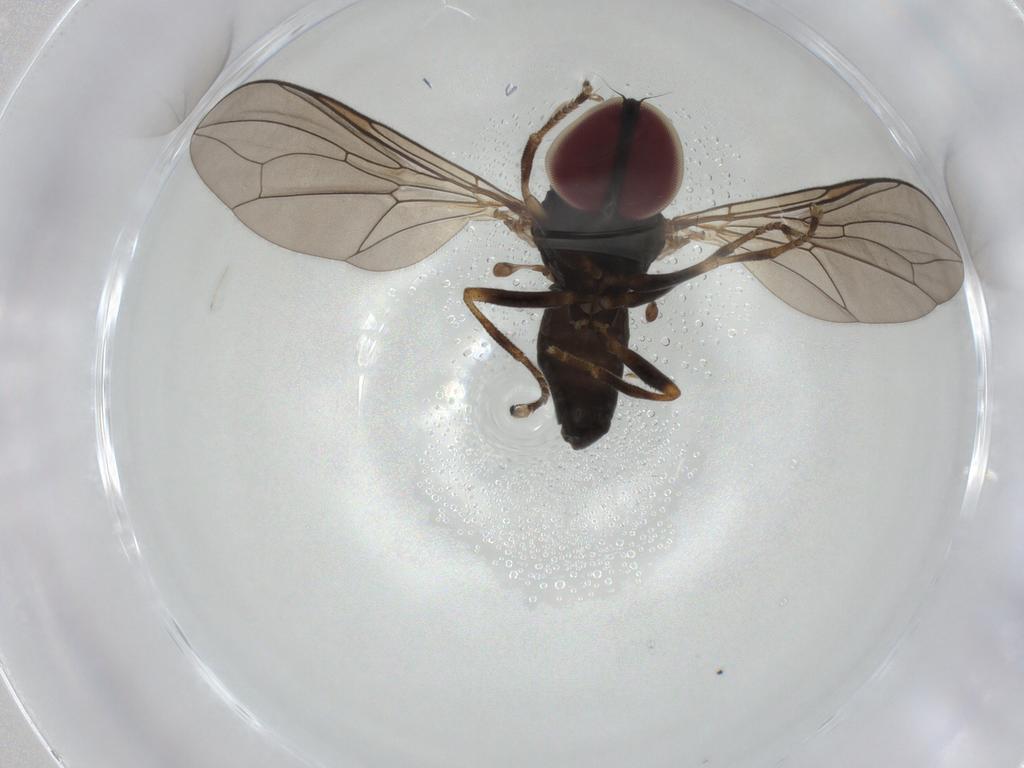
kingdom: Animalia
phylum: Arthropoda
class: Insecta
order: Diptera
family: Pipunculidae
